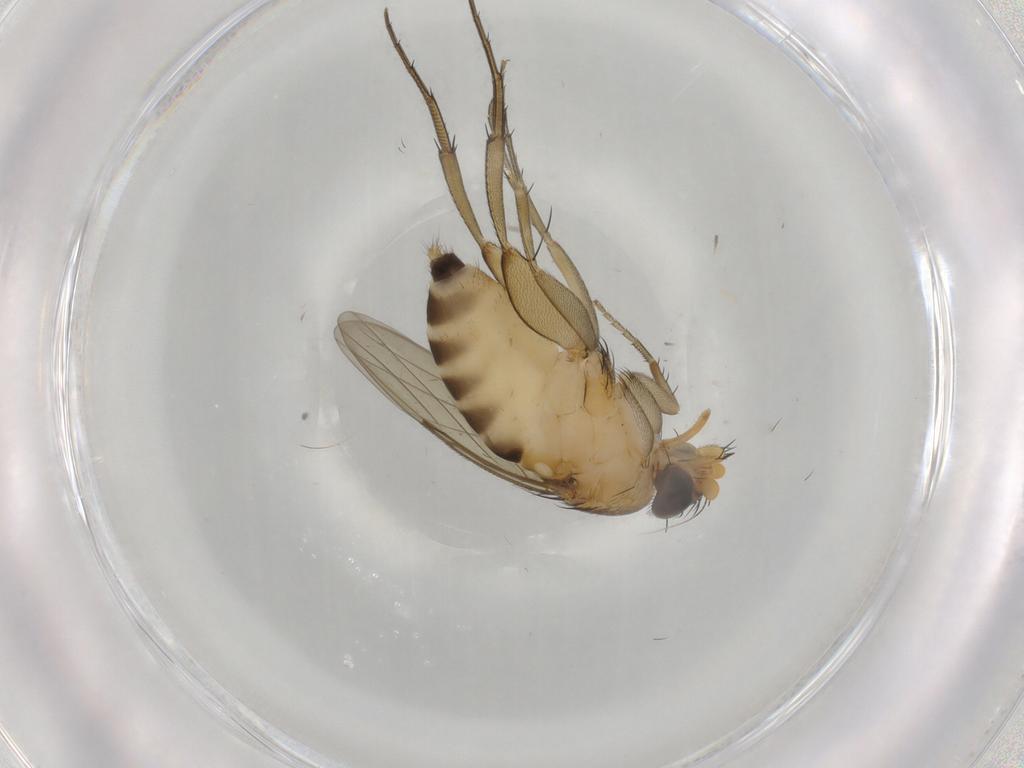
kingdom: Animalia
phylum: Arthropoda
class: Insecta
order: Diptera
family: Phoridae
